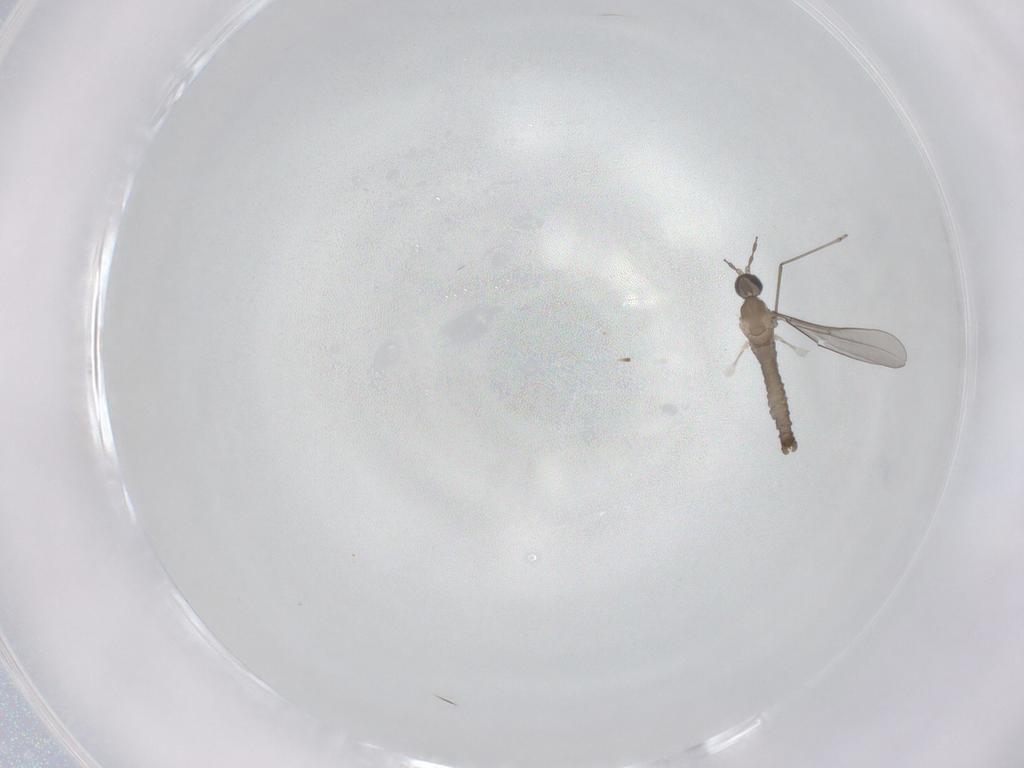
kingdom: Animalia
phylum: Arthropoda
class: Insecta
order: Diptera
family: Cecidomyiidae
